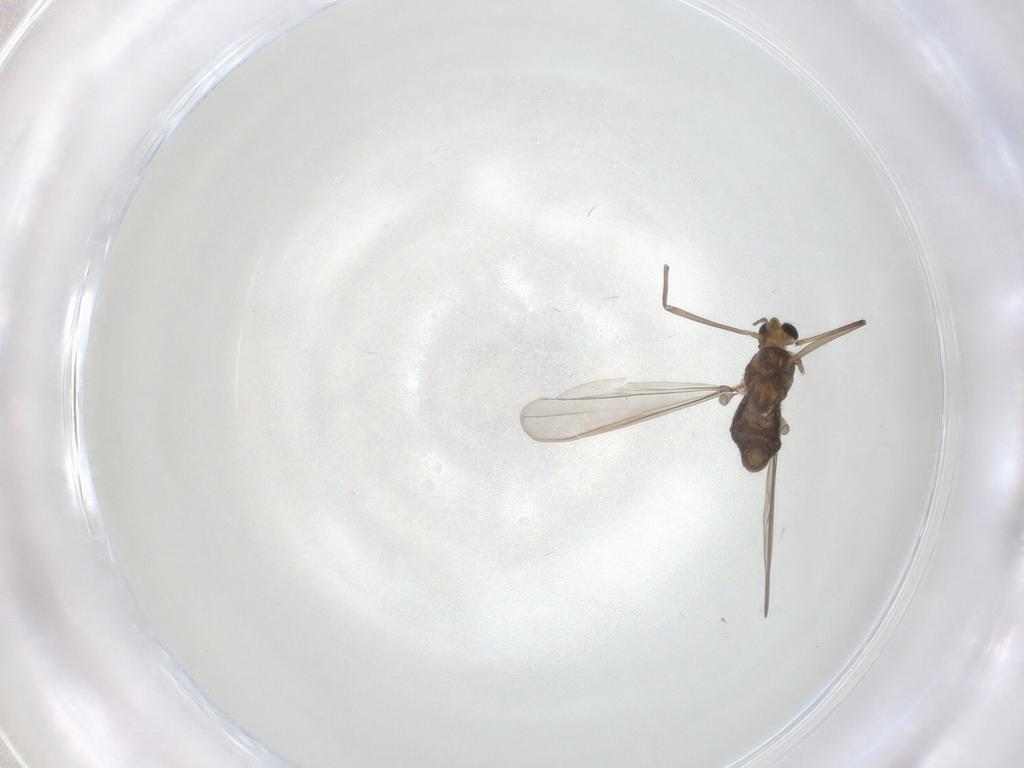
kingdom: Animalia
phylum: Arthropoda
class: Insecta
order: Diptera
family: Chironomidae
